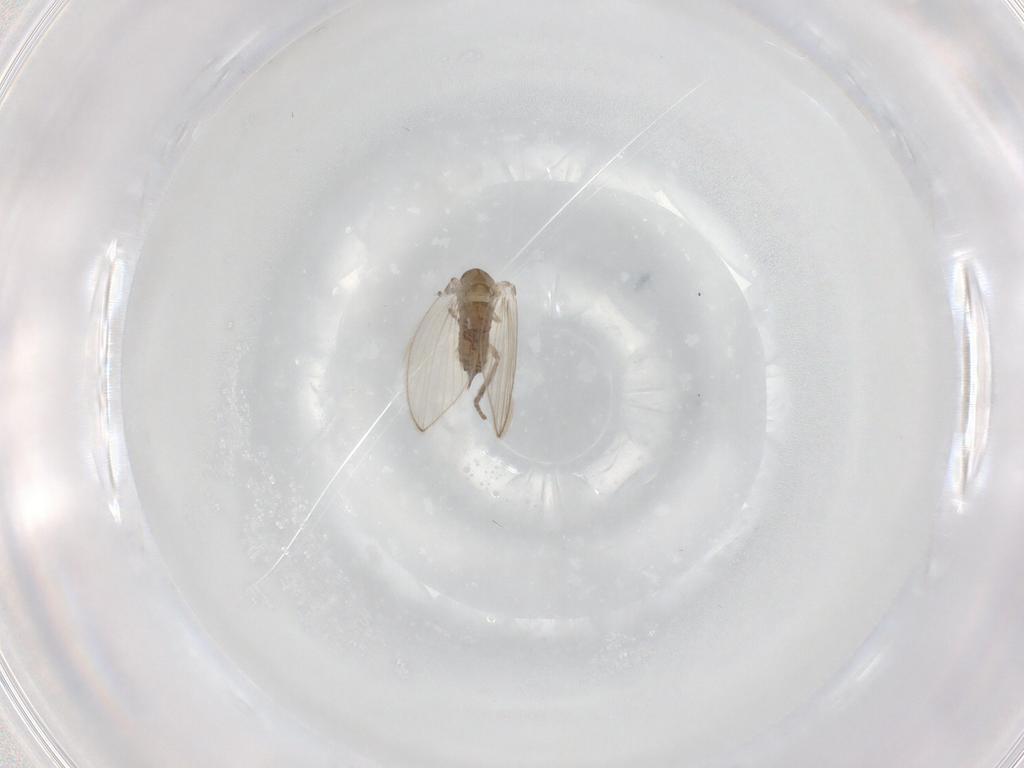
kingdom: Animalia
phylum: Arthropoda
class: Insecta
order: Diptera
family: Psychodidae
